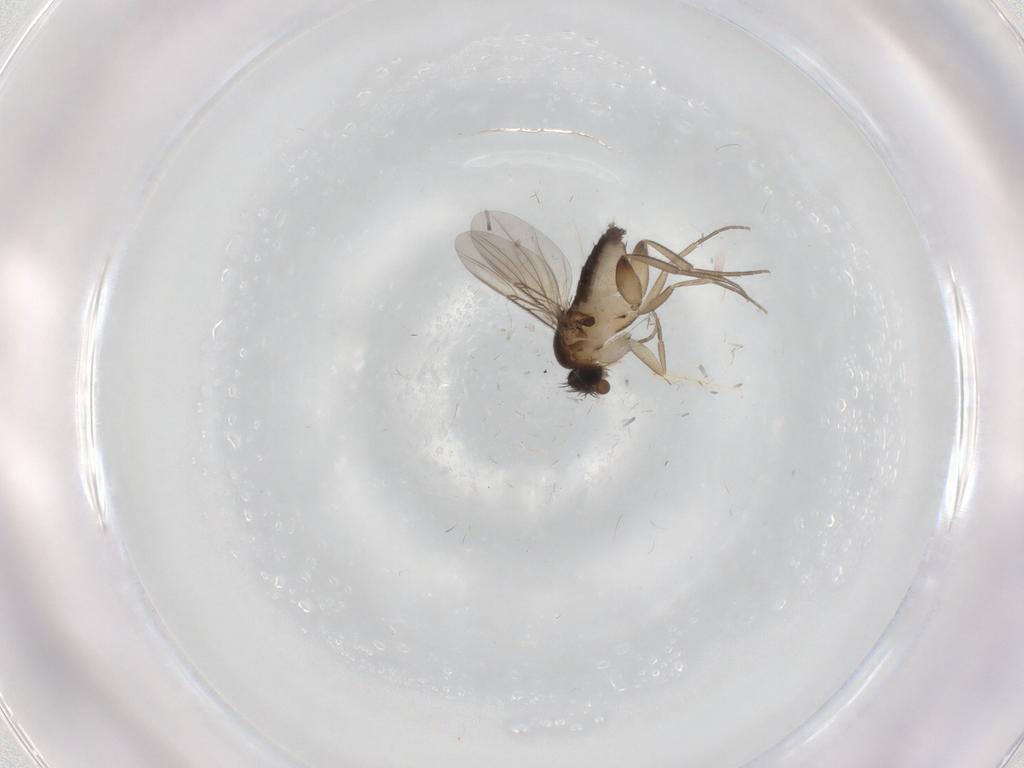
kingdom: Animalia
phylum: Arthropoda
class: Insecta
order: Diptera
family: Phoridae
